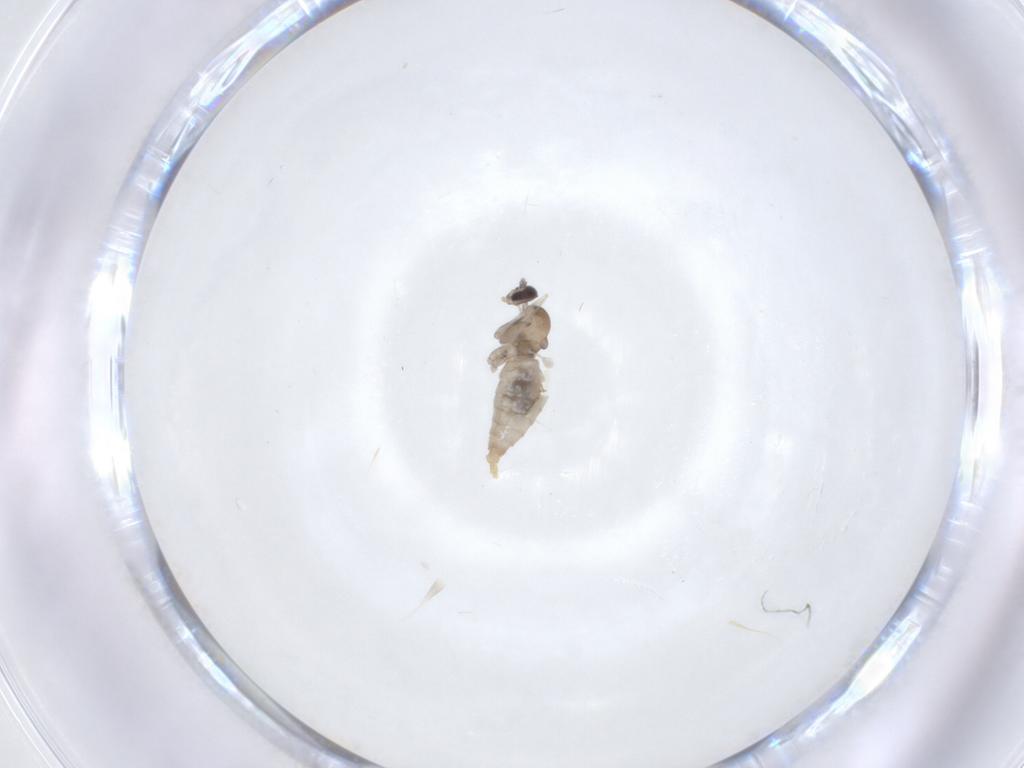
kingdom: Animalia
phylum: Arthropoda
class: Insecta
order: Diptera
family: Cecidomyiidae
